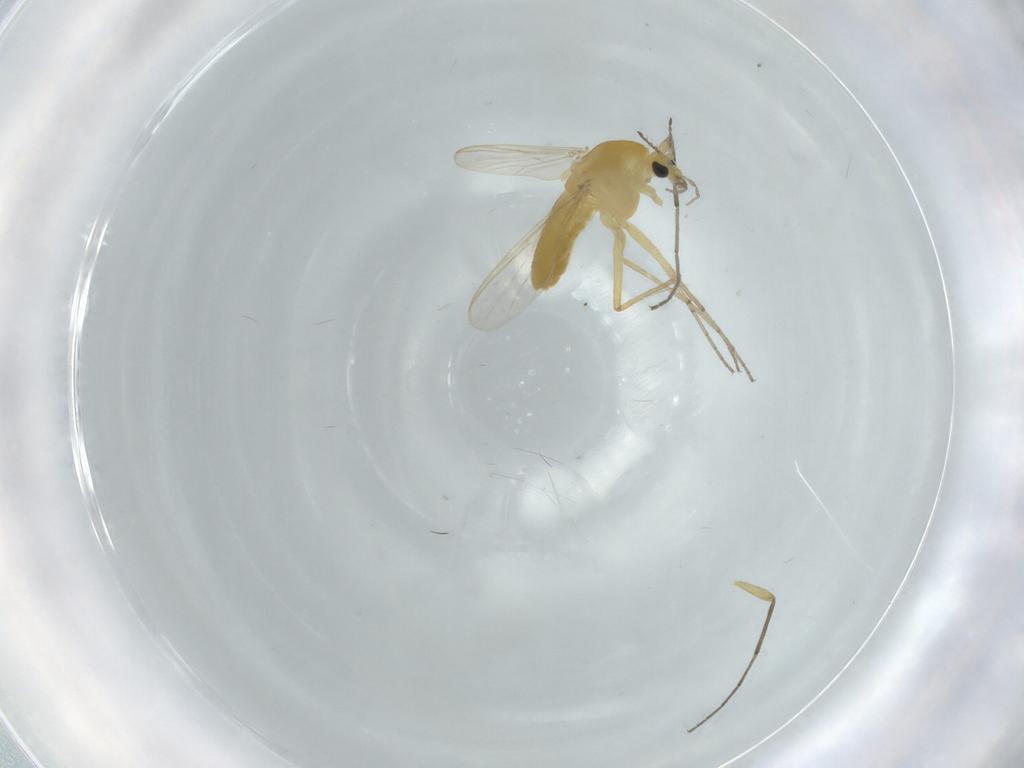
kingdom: Animalia
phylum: Arthropoda
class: Insecta
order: Diptera
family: Chironomidae
